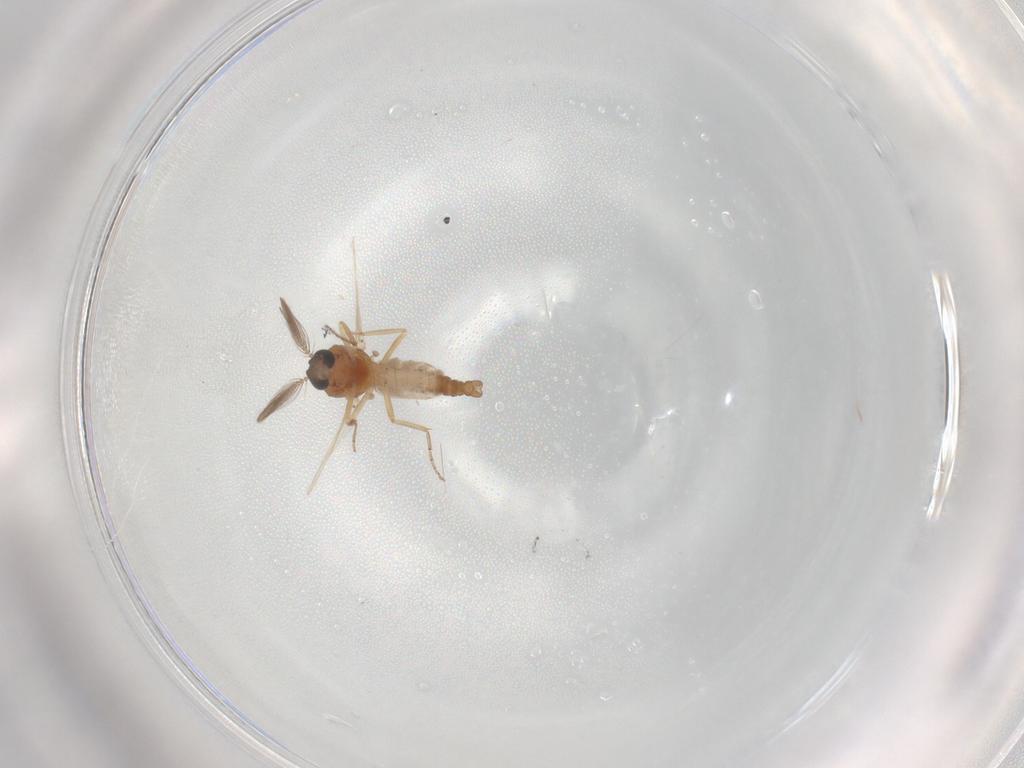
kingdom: Animalia
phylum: Arthropoda
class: Insecta
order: Diptera
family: Ceratopogonidae
